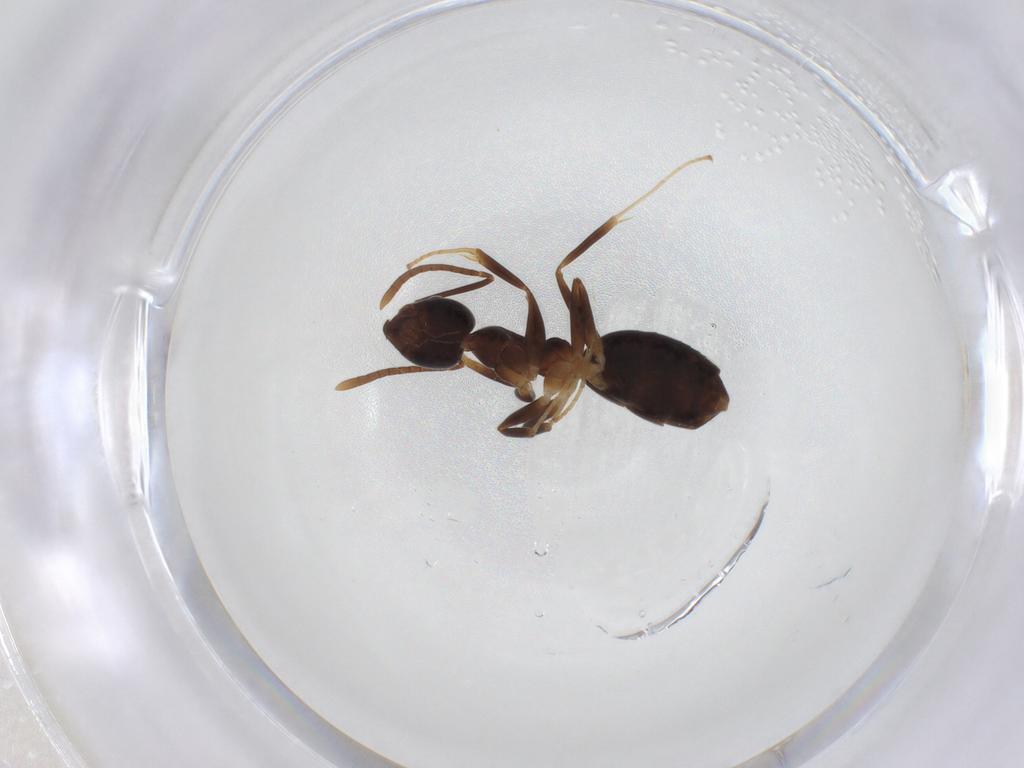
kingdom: Animalia
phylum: Arthropoda
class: Insecta
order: Hymenoptera
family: Formicidae
